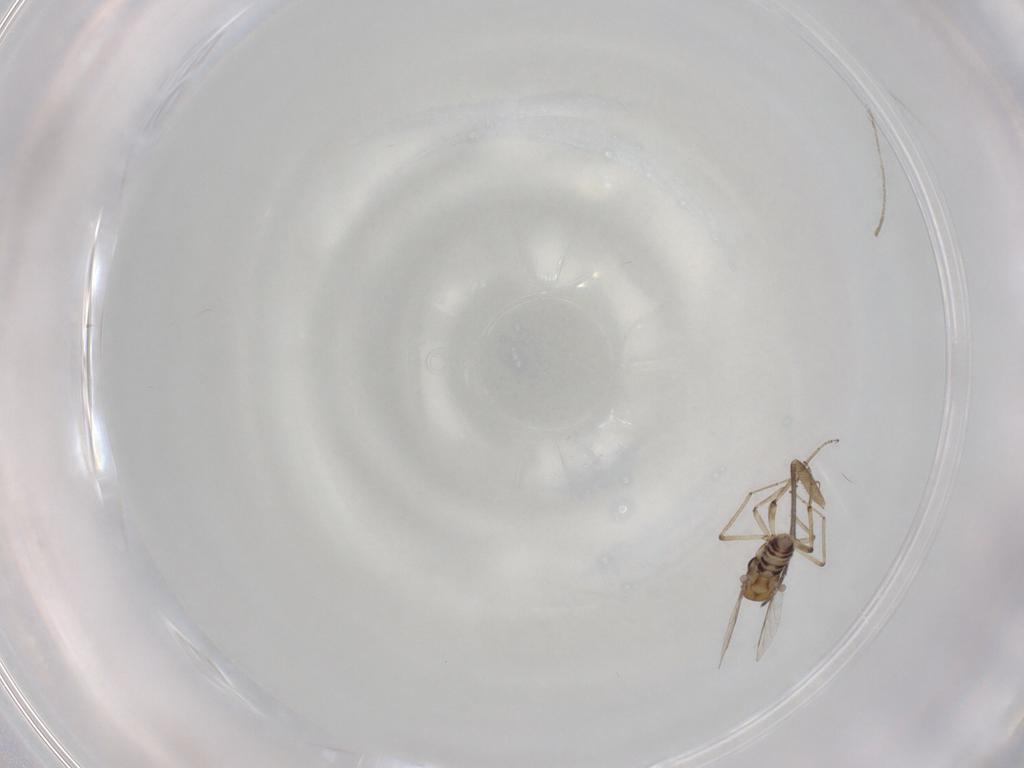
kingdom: Animalia
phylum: Arthropoda
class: Insecta
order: Diptera
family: Ceratopogonidae
